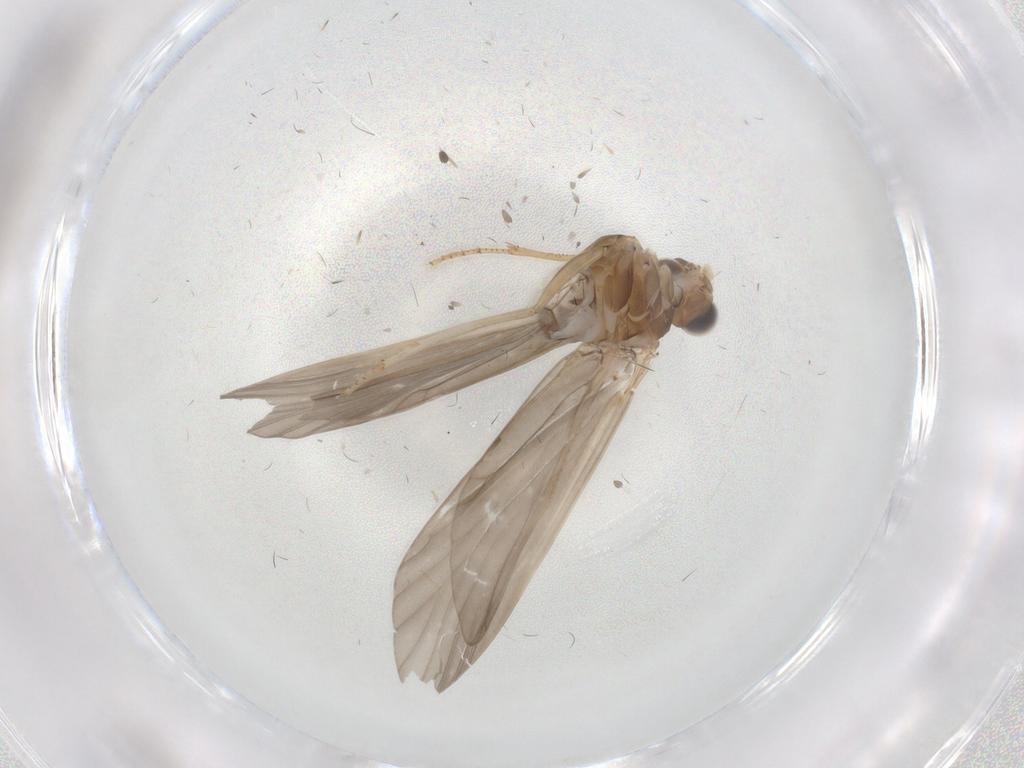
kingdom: Animalia
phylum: Arthropoda
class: Insecta
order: Trichoptera
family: Helicopsychidae
